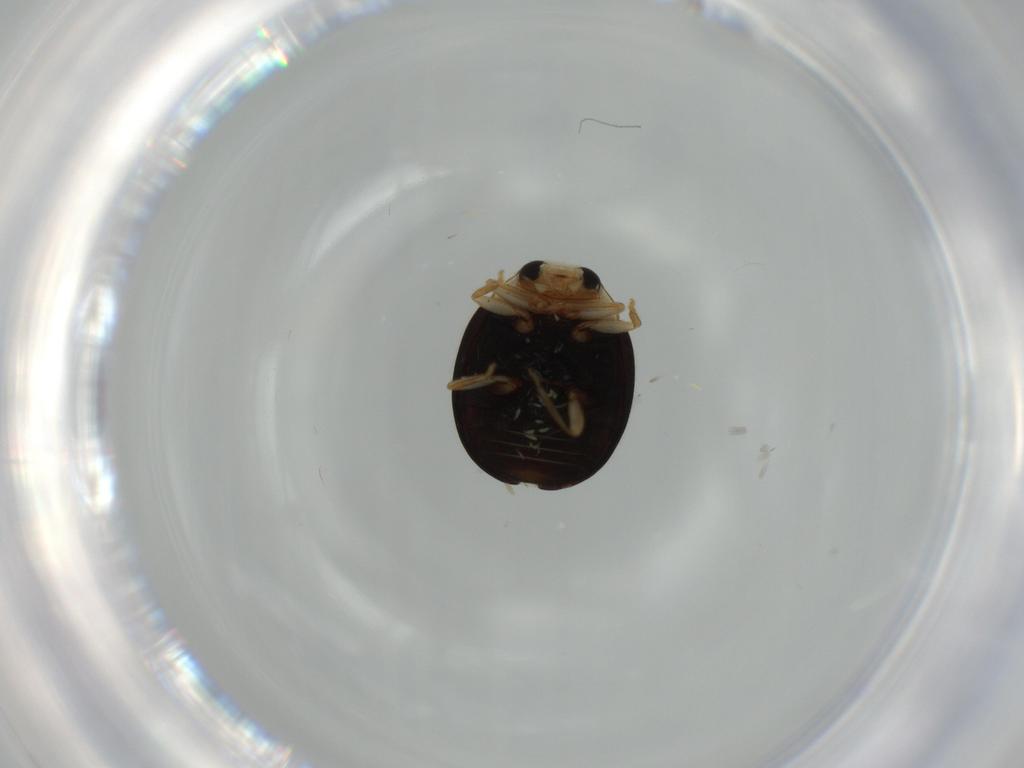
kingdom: Animalia
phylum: Arthropoda
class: Insecta
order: Coleoptera
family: Coccinellidae
